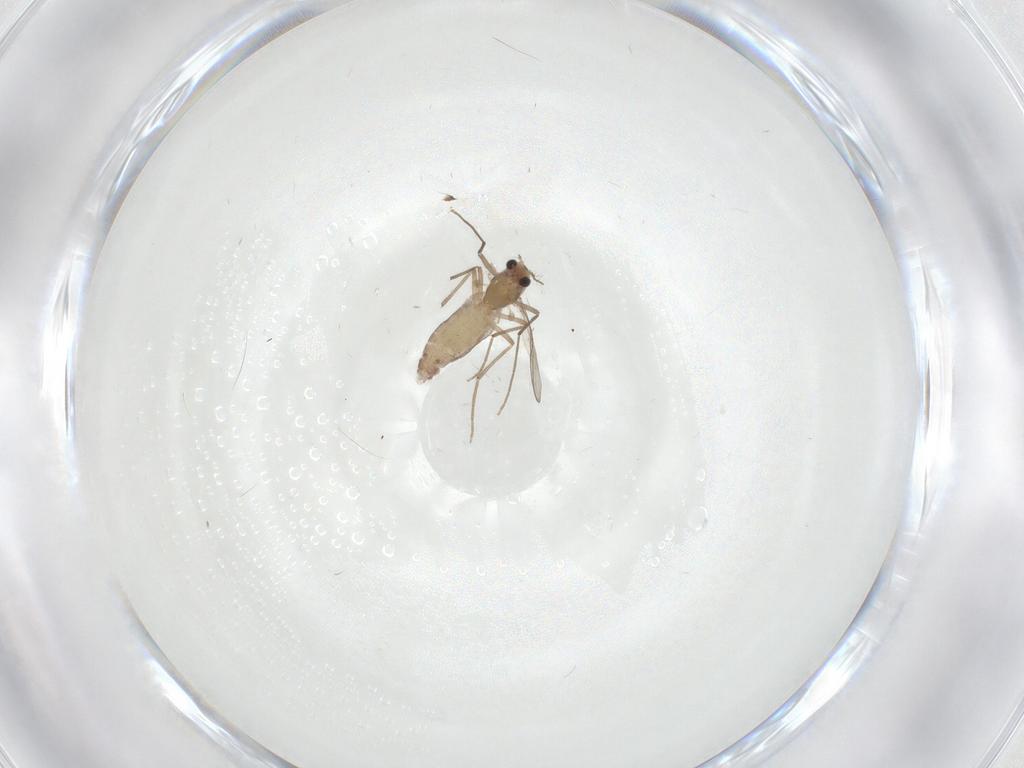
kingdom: Animalia
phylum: Arthropoda
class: Insecta
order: Diptera
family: Chironomidae
